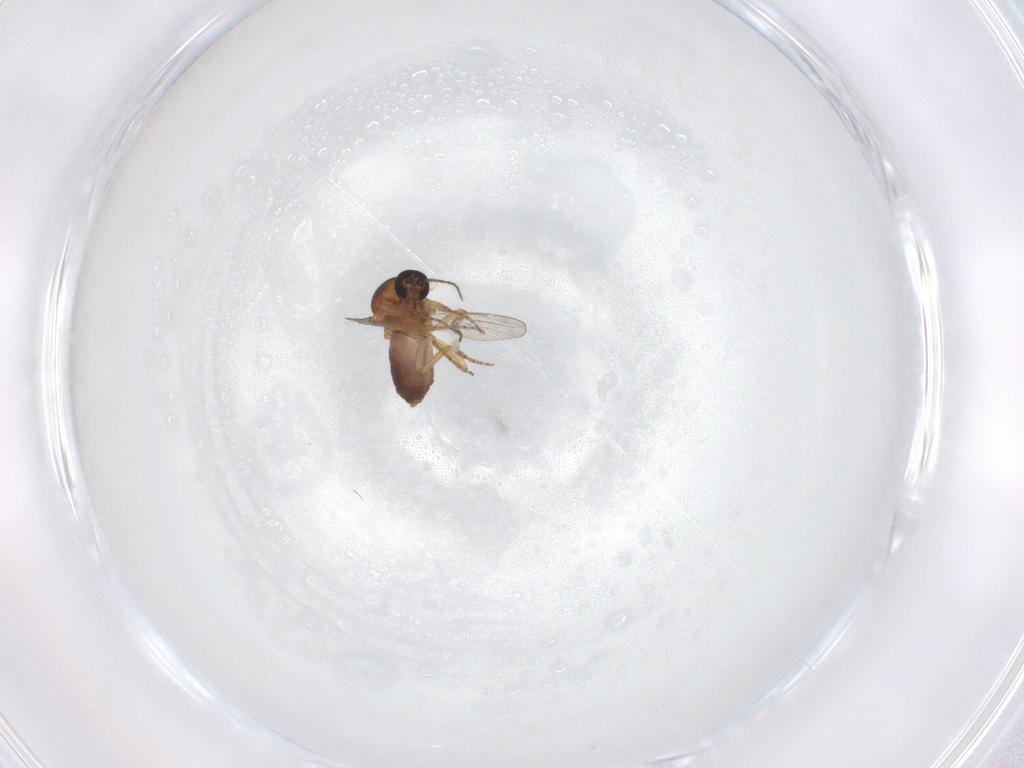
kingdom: Animalia
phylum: Arthropoda
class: Insecta
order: Diptera
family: Ceratopogonidae
